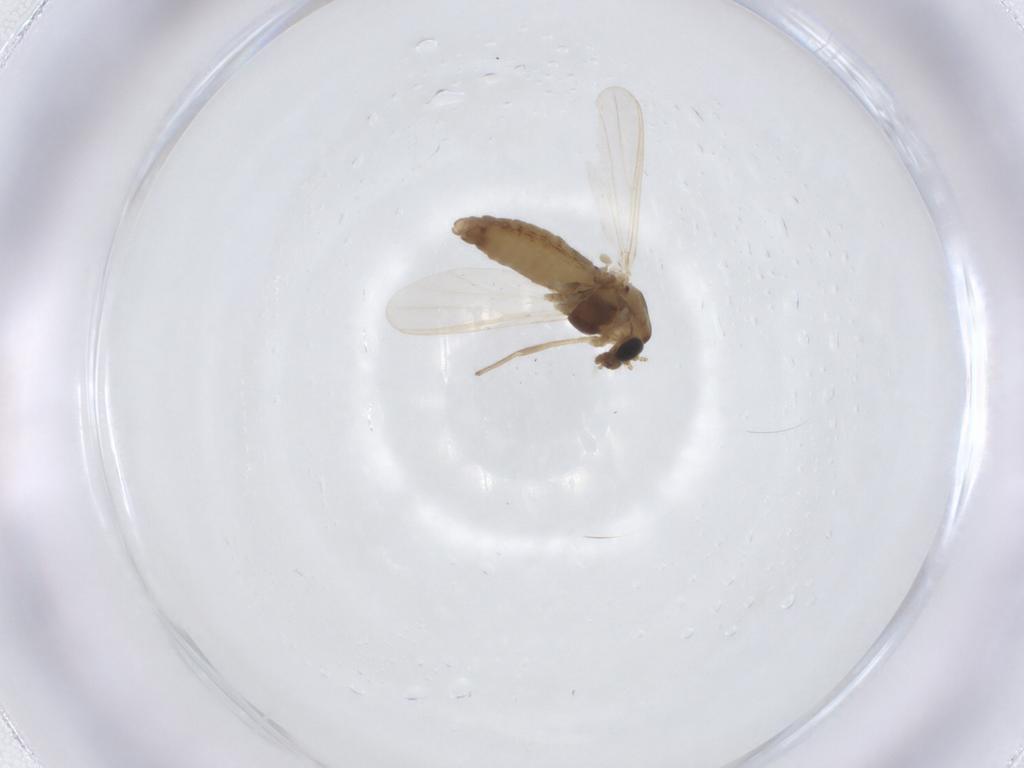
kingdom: Animalia
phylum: Arthropoda
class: Insecta
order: Diptera
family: Chironomidae
